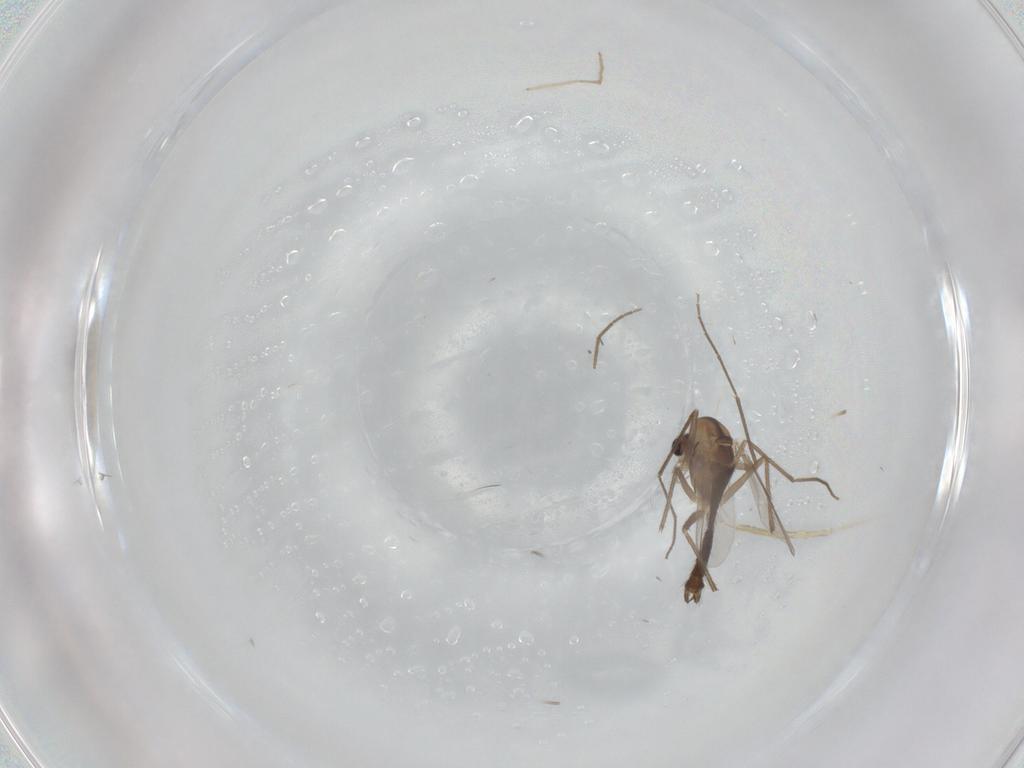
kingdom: Animalia
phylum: Arthropoda
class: Insecta
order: Diptera
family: Chironomidae
